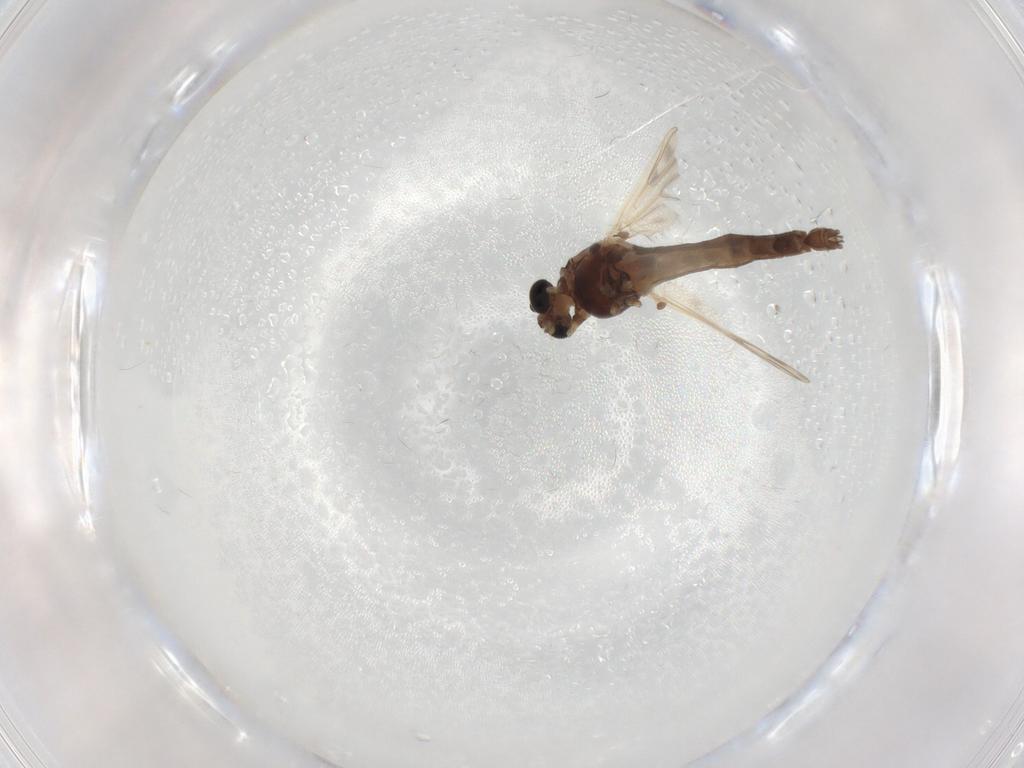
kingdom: Animalia
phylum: Arthropoda
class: Insecta
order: Diptera
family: Chironomidae
